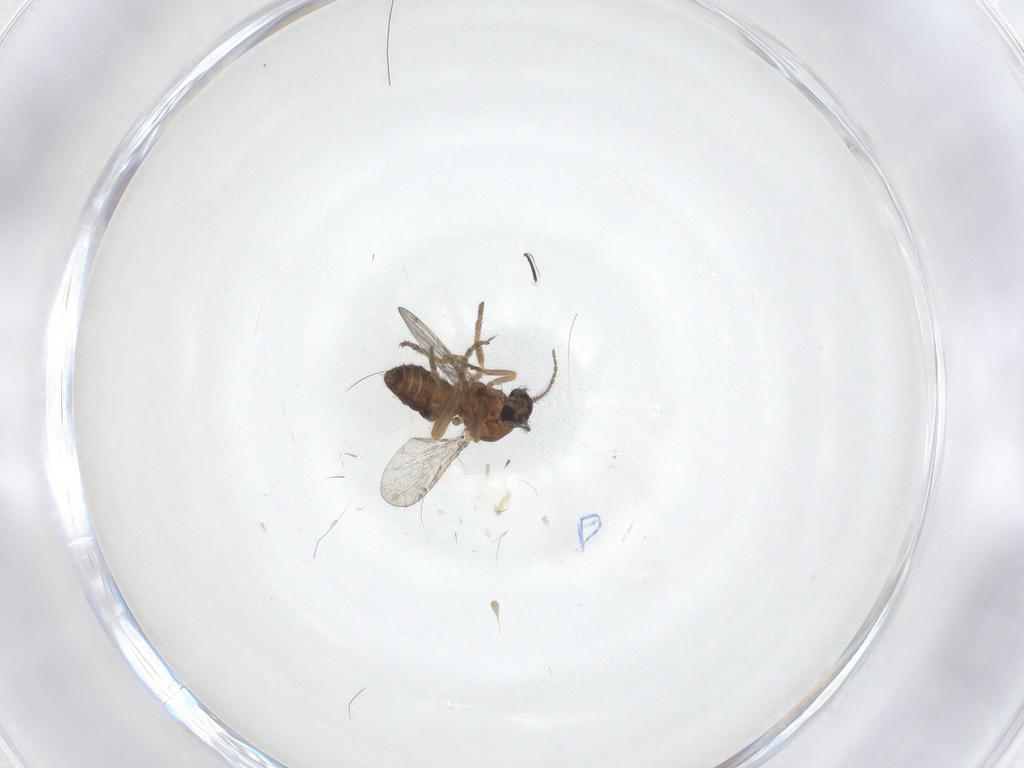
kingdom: Animalia
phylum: Arthropoda
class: Insecta
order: Diptera
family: Ceratopogonidae
